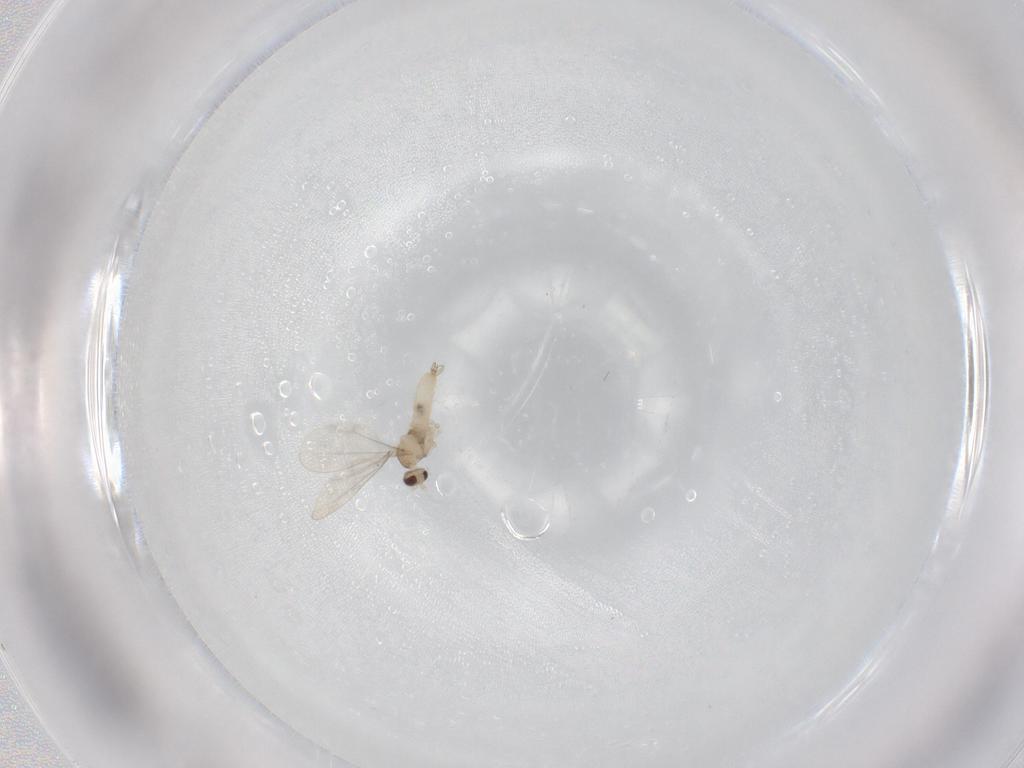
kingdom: Animalia
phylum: Arthropoda
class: Insecta
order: Diptera
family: Cecidomyiidae
